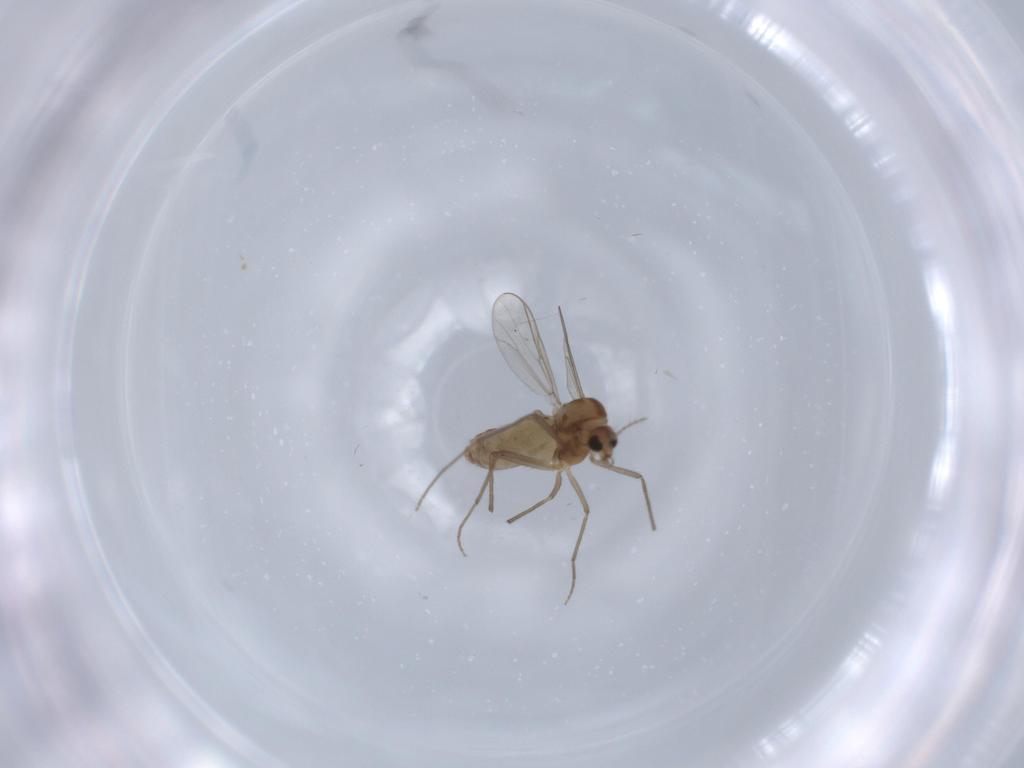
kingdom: Animalia
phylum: Arthropoda
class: Insecta
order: Diptera
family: Chironomidae
